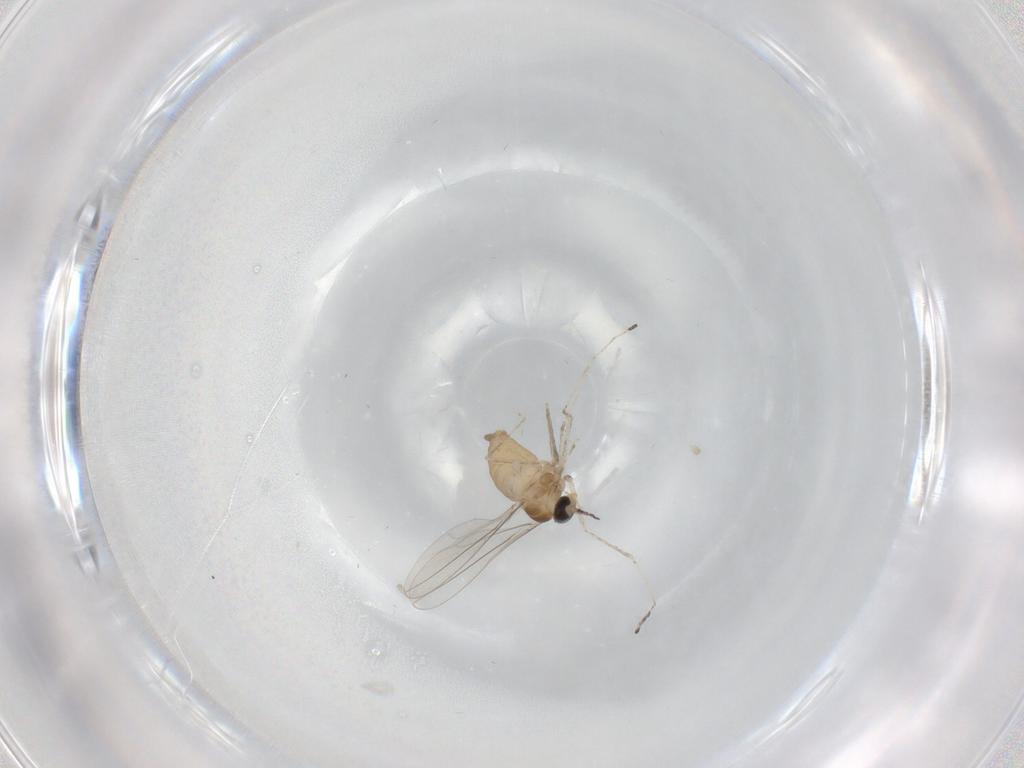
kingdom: Animalia
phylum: Arthropoda
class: Insecta
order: Diptera
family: Cecidomyiidae
